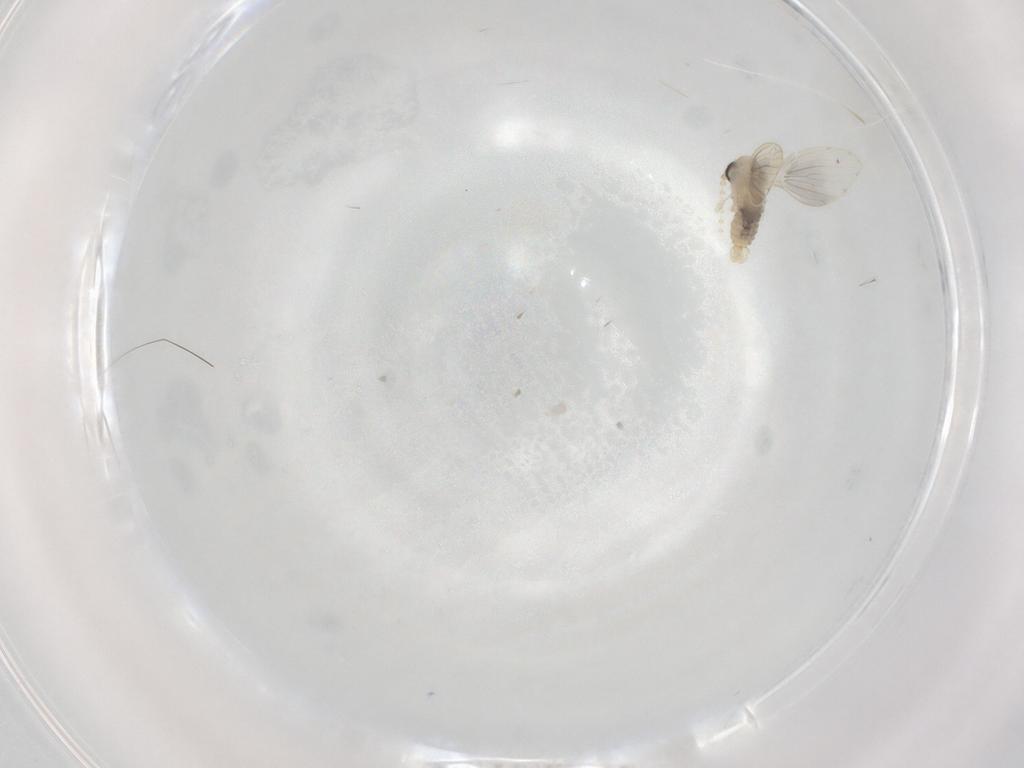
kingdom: Animalia
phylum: Arthropoda
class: Insecta
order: Diptera
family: Psychodidae
